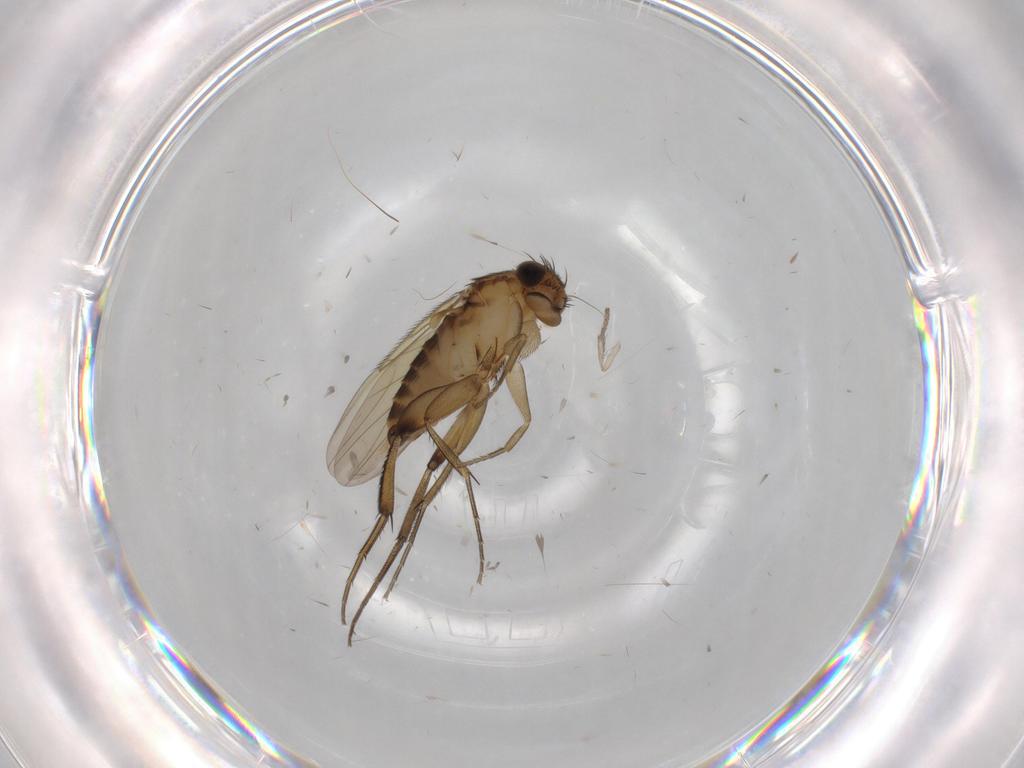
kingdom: Animalia
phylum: Arthropoda
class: Insecta
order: Diptera
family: Phoridae
